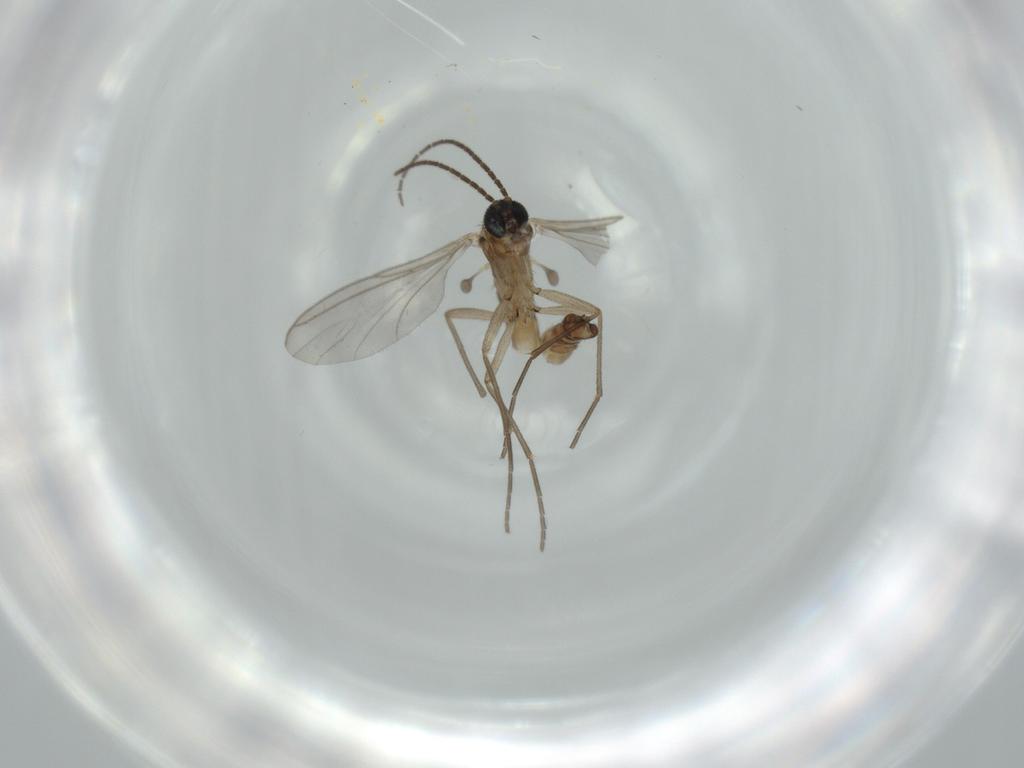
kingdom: Animalia
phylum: Arthropoda
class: Insecta
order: Diptera
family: Sciaridae
